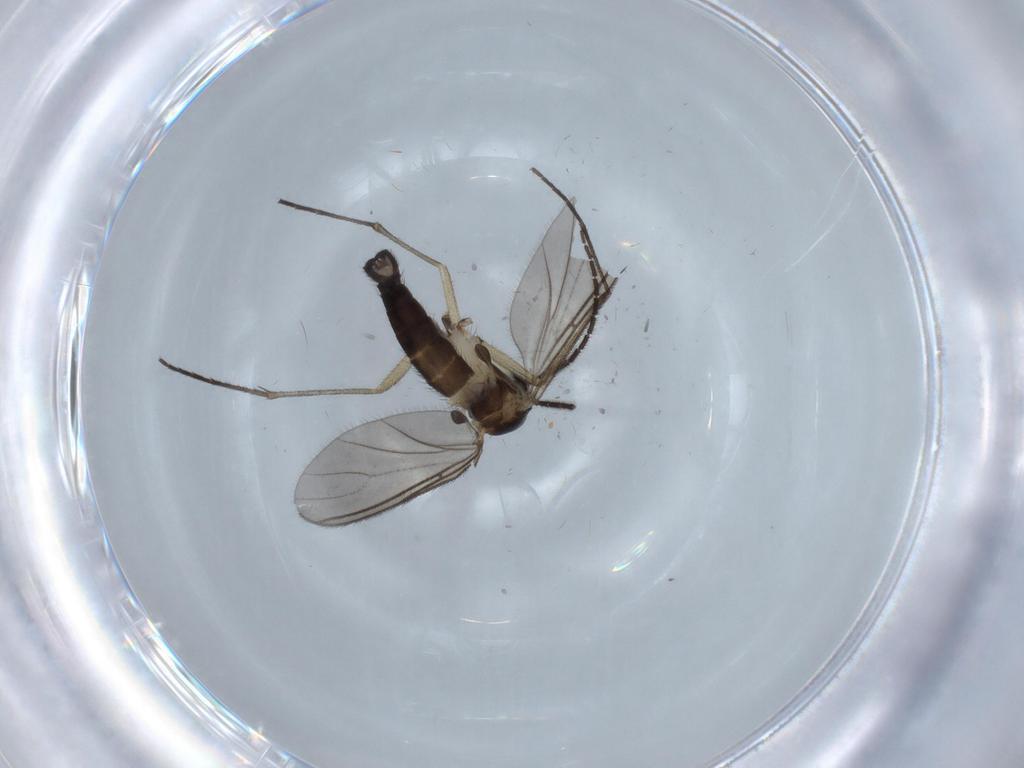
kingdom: Animalia
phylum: Arthropoda
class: Insecta
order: Diptera
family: Sciaridae
